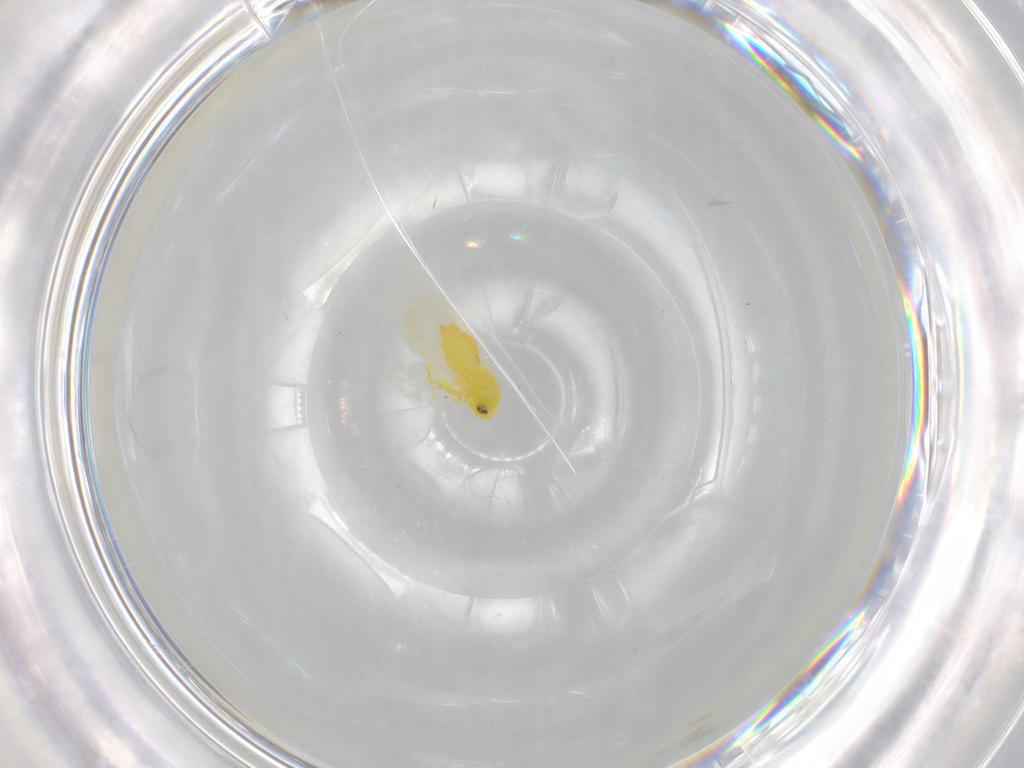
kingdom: Animalia
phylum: Arthropoda
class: Insecta
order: Hemiptera
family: Aleyrodidae
